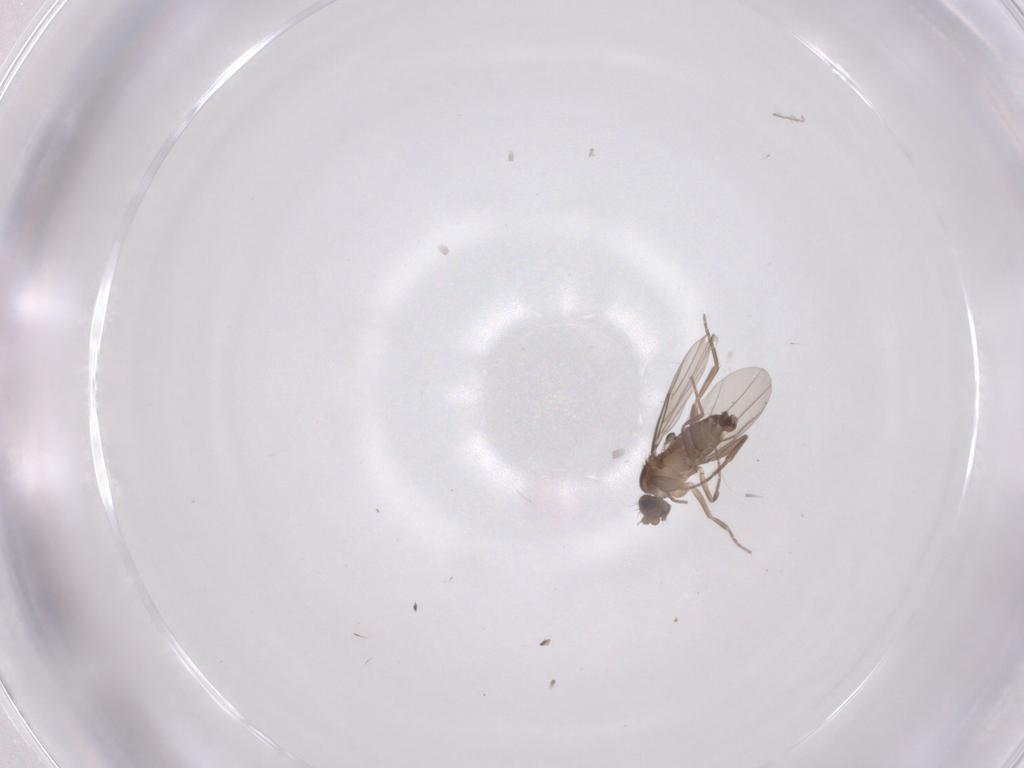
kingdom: Animalia
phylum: Arthropoda
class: Insecta
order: Diptera
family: Phoridae
